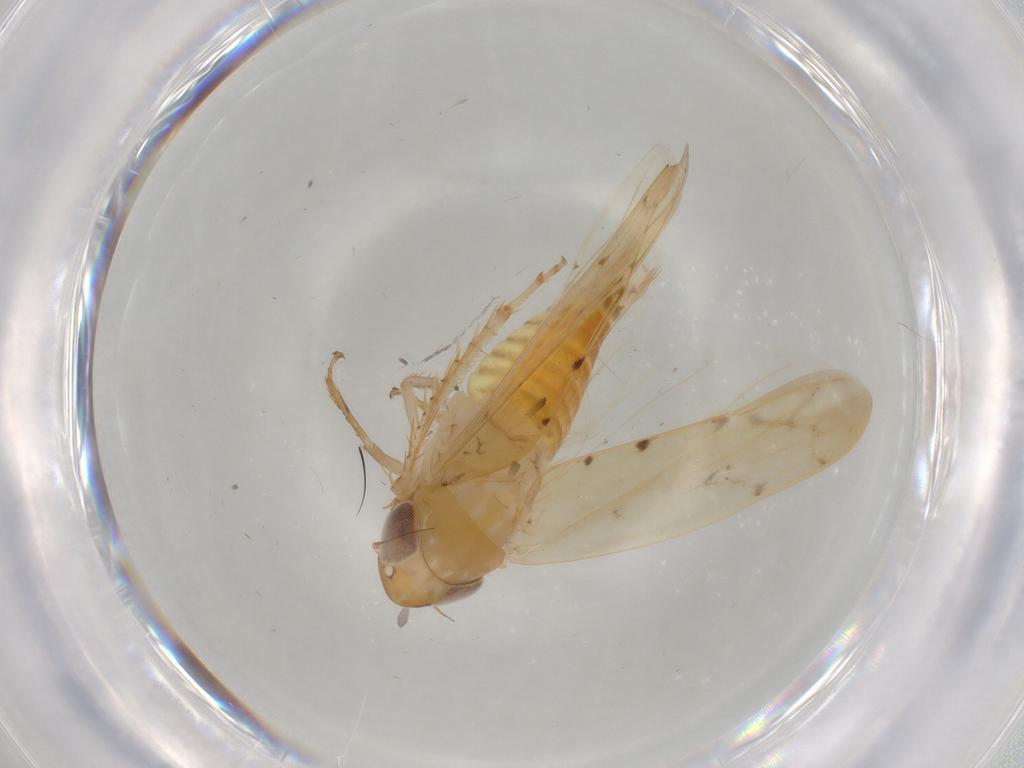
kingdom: Animalia
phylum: Arthropoda
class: Insecta
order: Hemiptera
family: Cicadellidae
